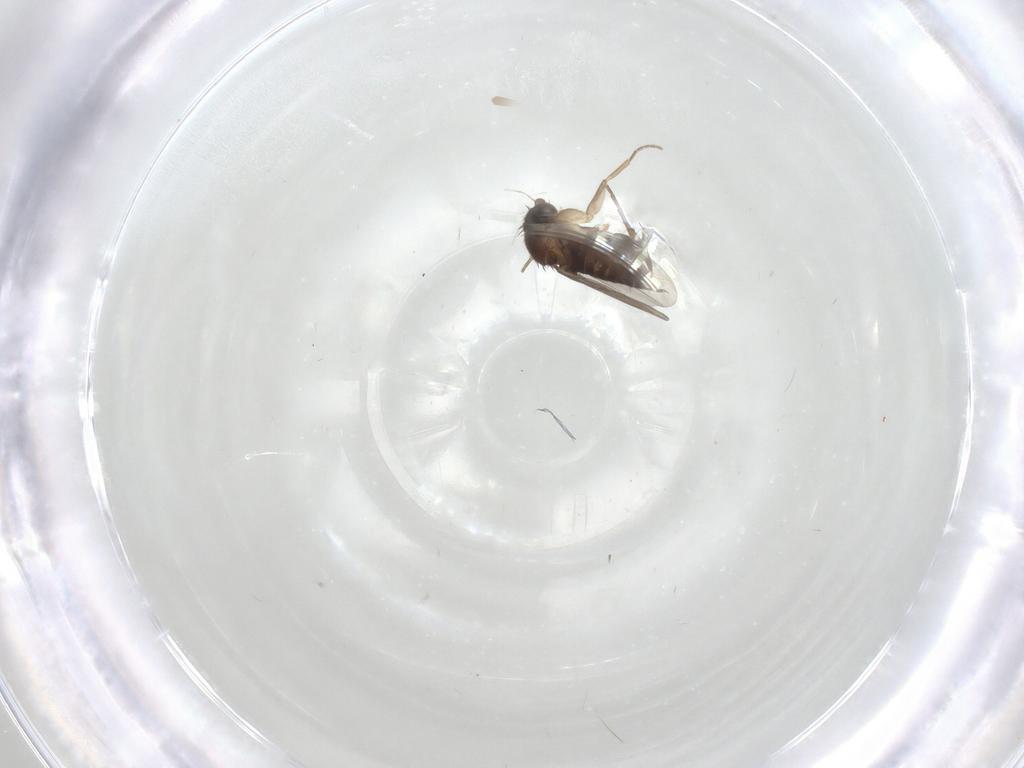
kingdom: Animalia
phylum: Arthropoda
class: Insecta
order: Diptera
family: Phoridae
